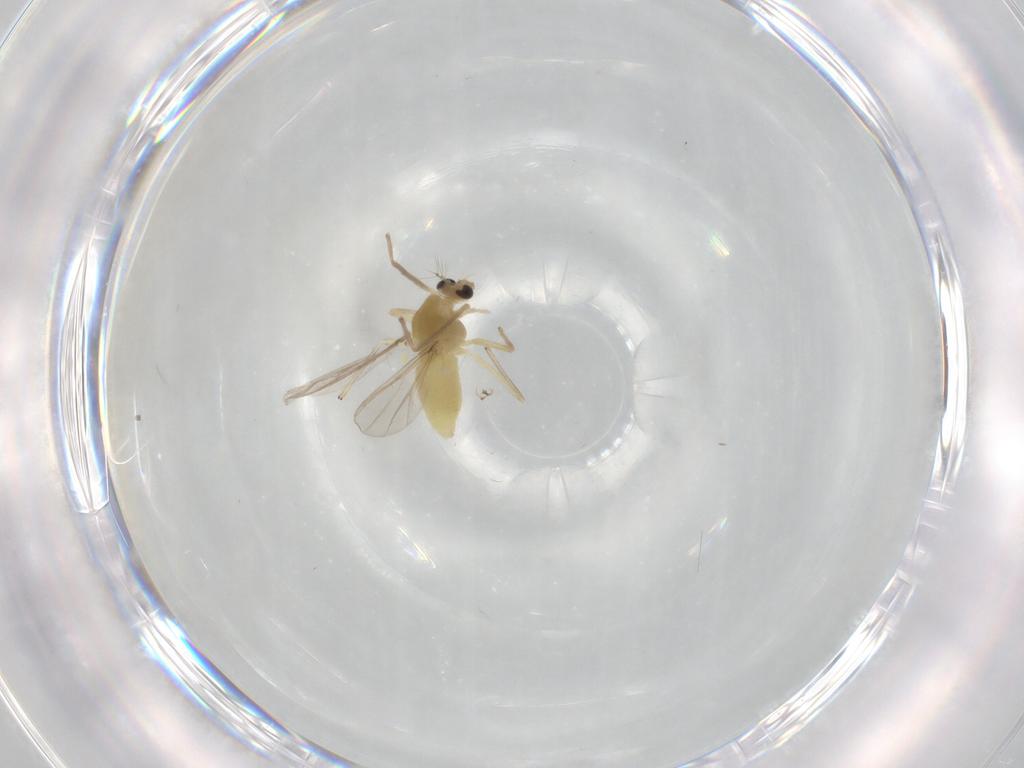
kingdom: Animalia
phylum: Arthropoda
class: Insecta
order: Diptera
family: Chironomidae
